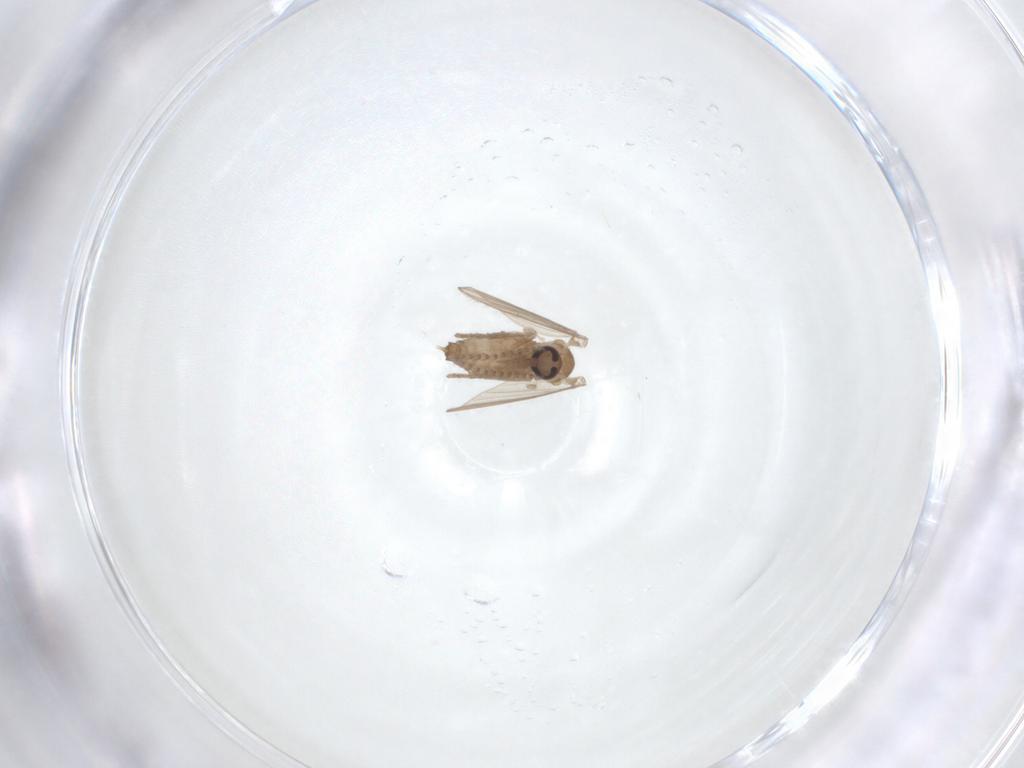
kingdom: Animalia
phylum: Arthropoda
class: Insecta
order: Diptera
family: Psychodidae
